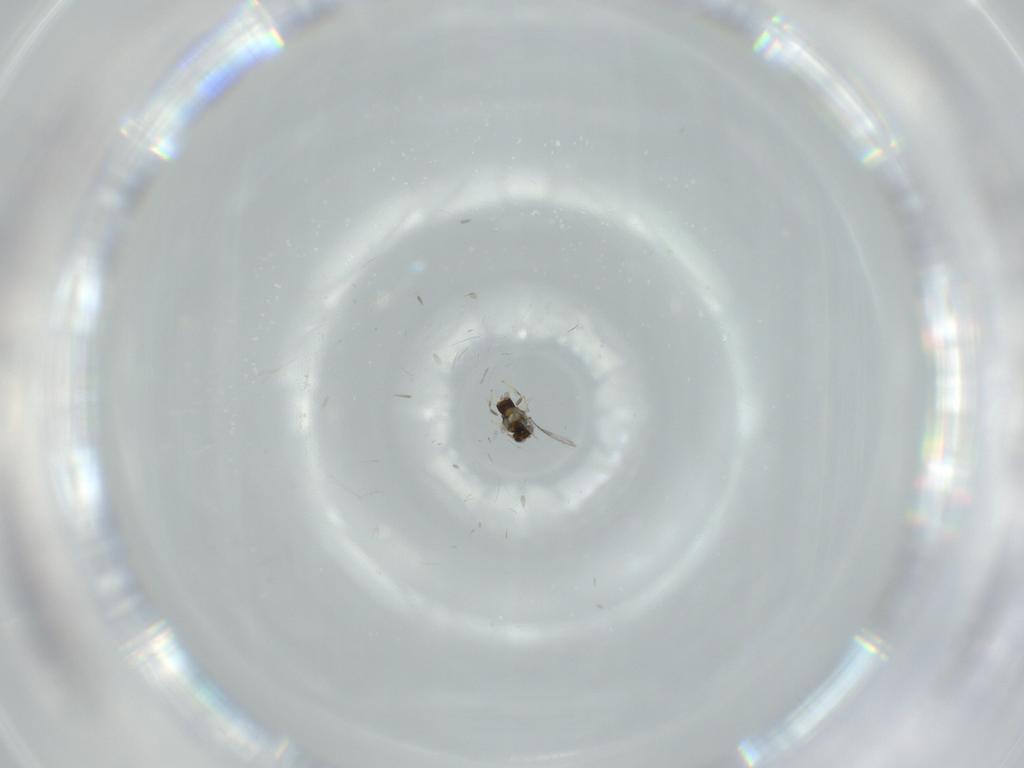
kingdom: Animalia
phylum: Arthropoda
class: Insecta
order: Hymenoptera
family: Aphelinidae
